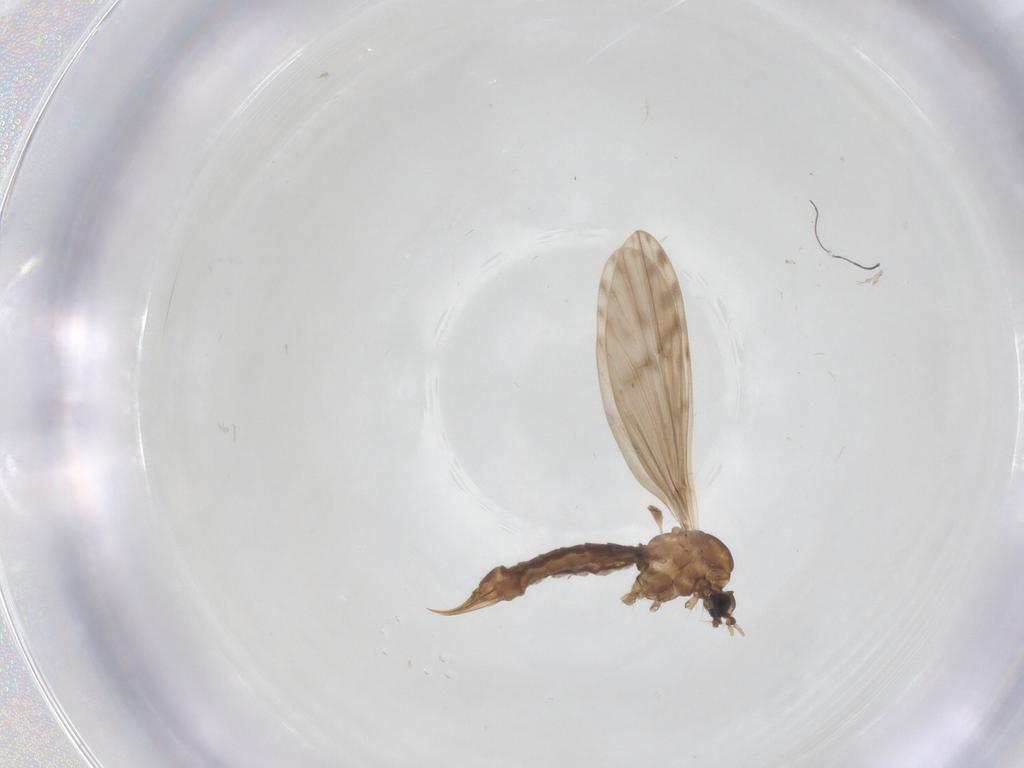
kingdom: Animalia
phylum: Arthropoda
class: Insecta
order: Diptera
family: Limoniidae
